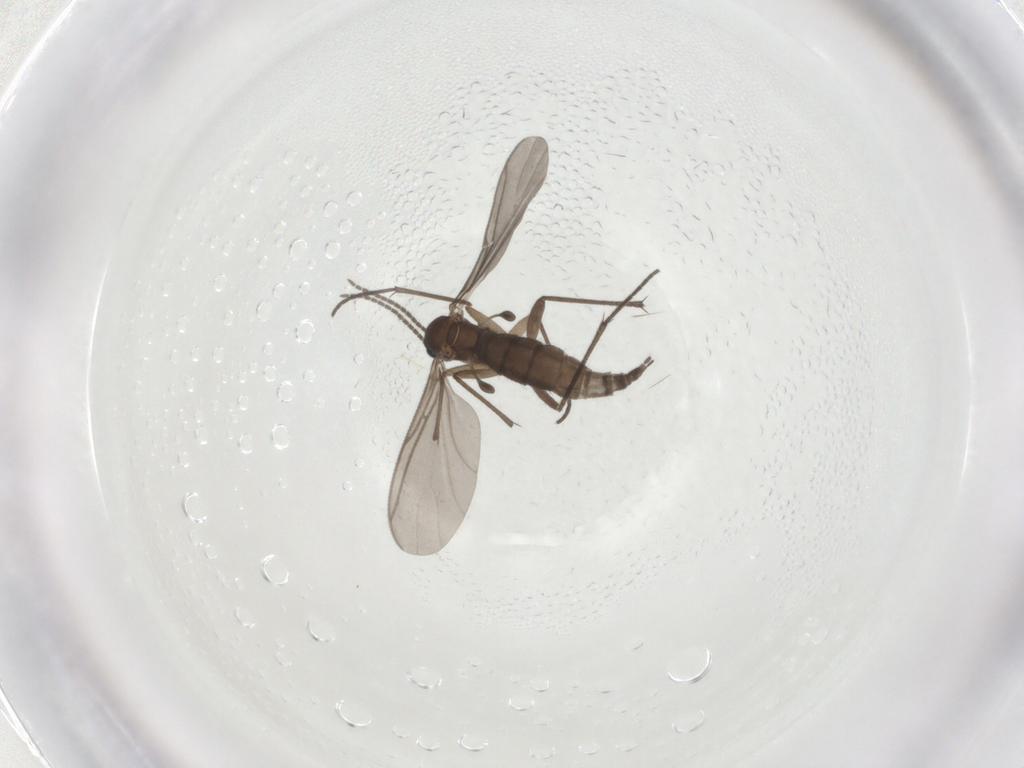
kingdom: Animalia
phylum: Arthropoda
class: Insecta
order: Diptera
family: Sciaridae
